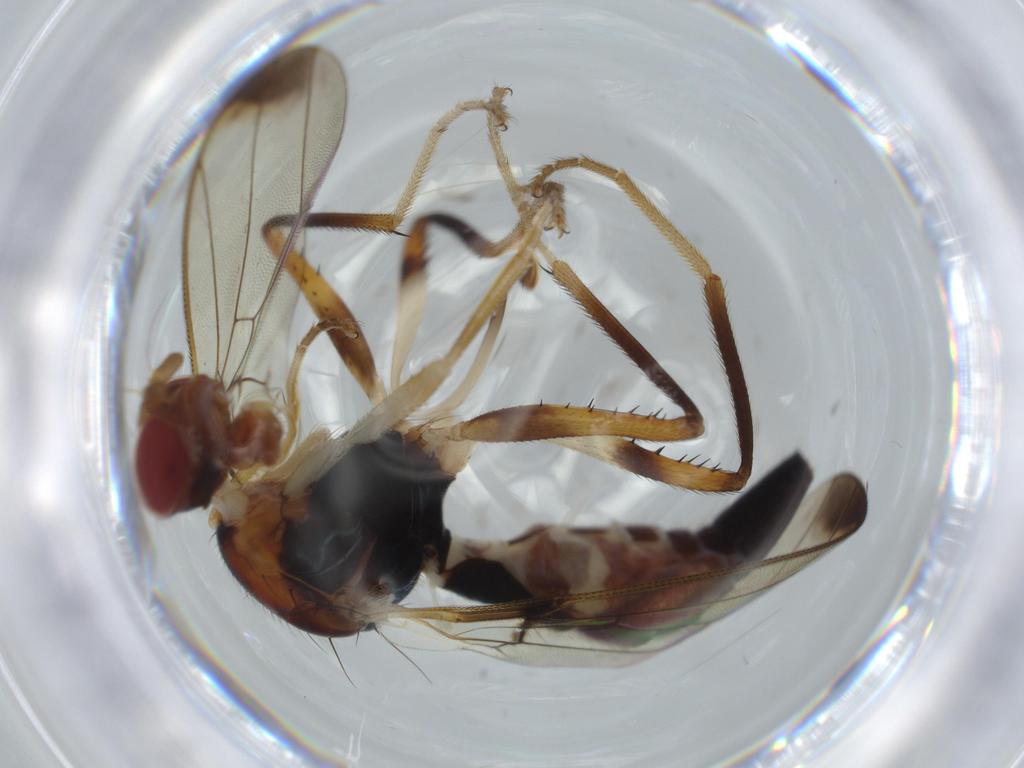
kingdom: Animalia
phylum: Arthropoda
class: Insecta
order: Diptera
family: Richardiidae
